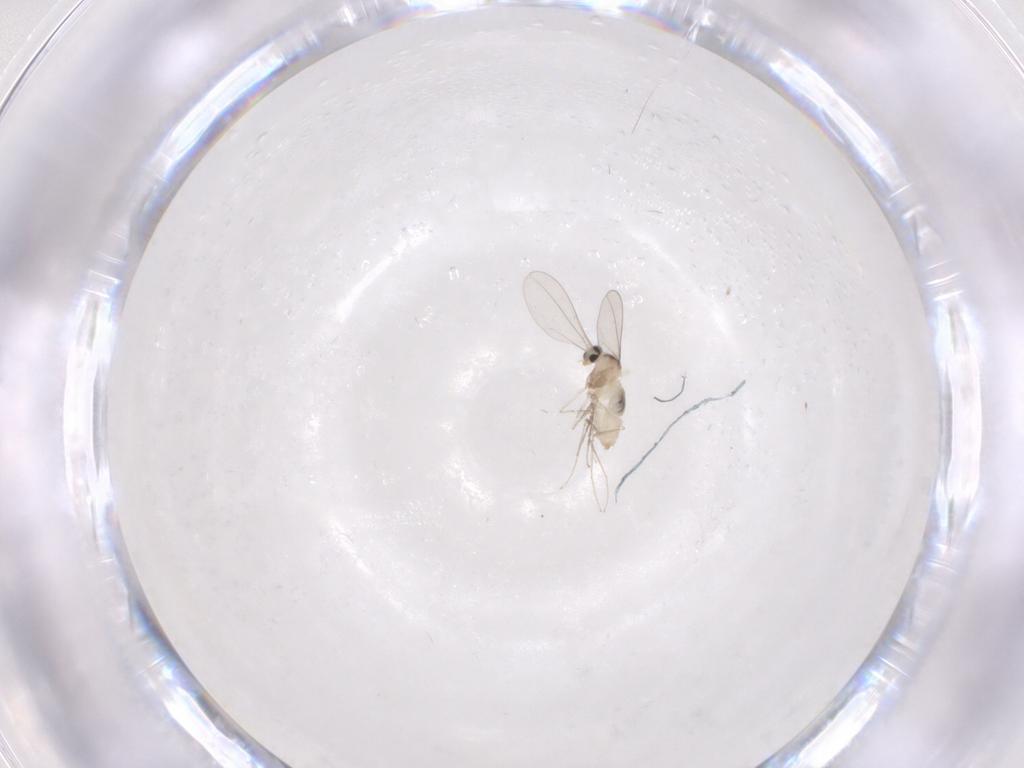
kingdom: Animalia
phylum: Arthropoda
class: Insecta
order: Diptera
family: Cecidomyiidae
